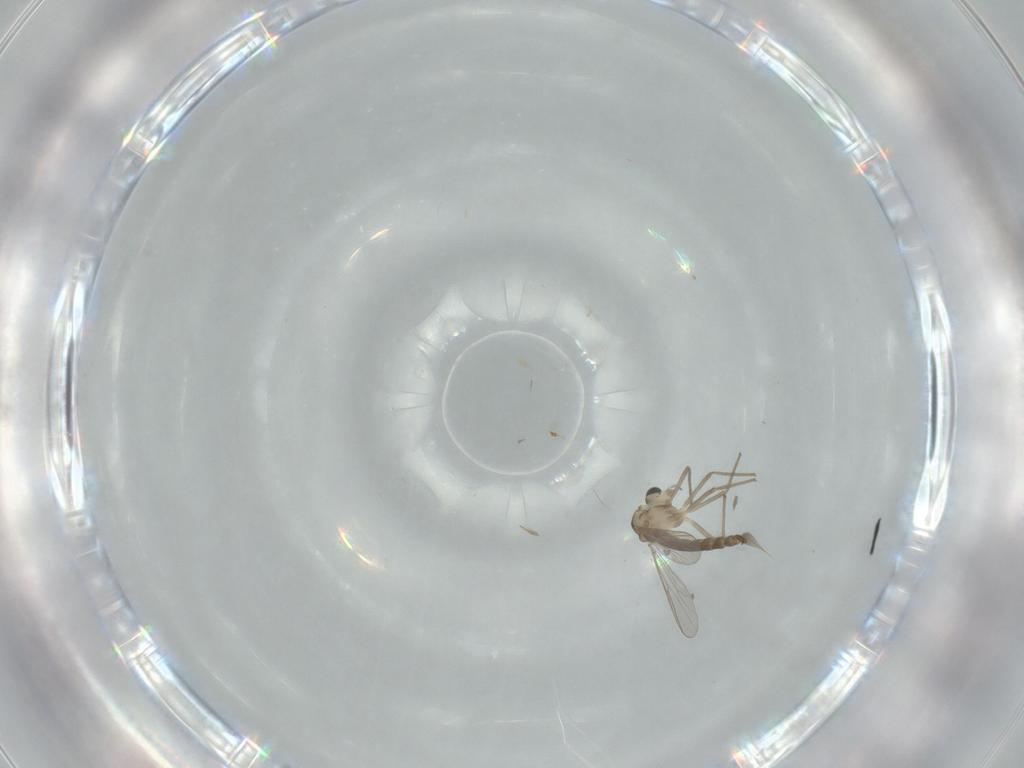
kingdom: Animalia
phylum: Arthropoda
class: Insecta
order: Diptera
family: Chironomidae
